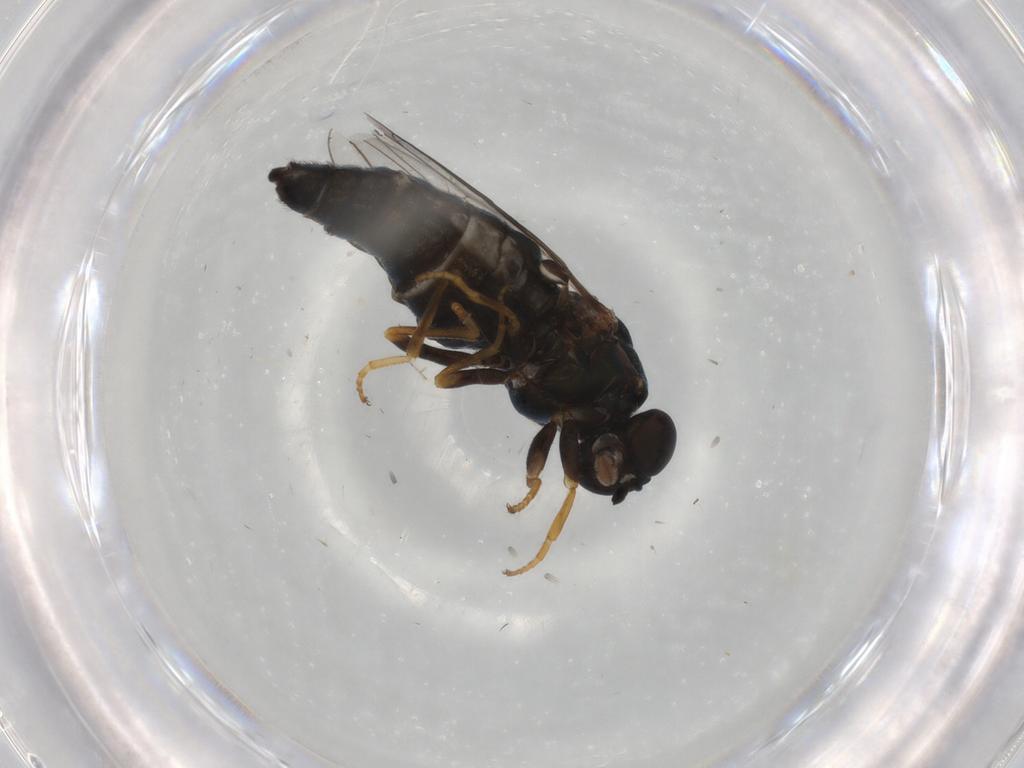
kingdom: Animalia
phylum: Arthropoda
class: Insecta
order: Diptera
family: Scenopinidae
